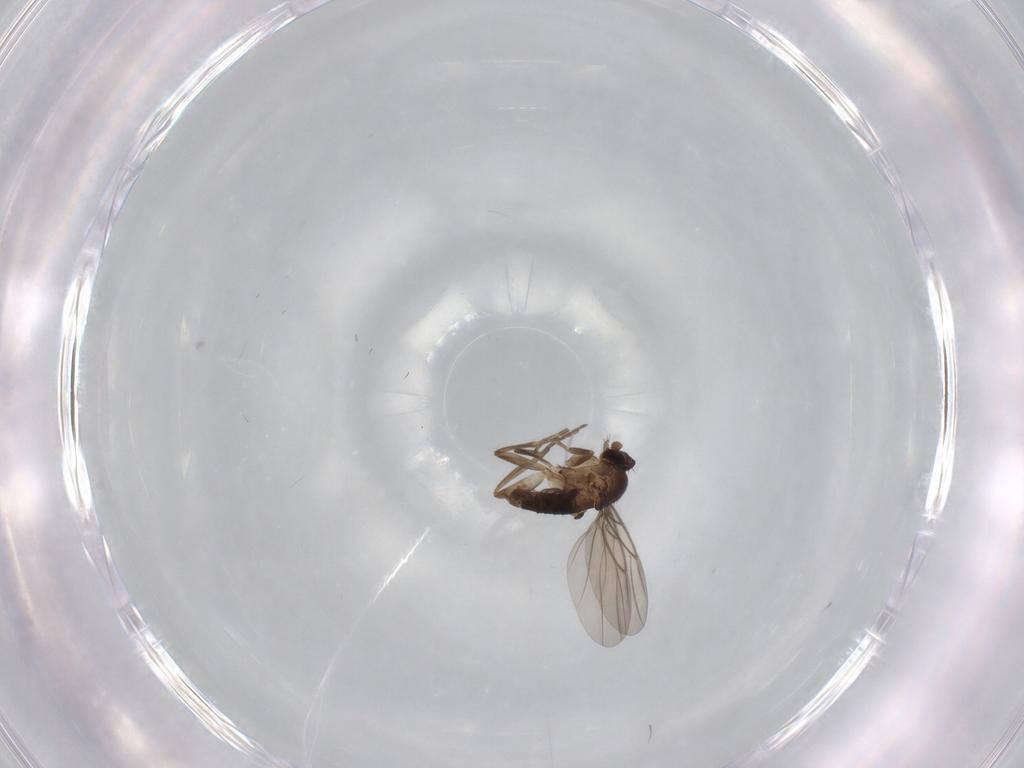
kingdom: Animalia
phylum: Arthropoda
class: Insecta
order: Diptera
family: Phoridae
